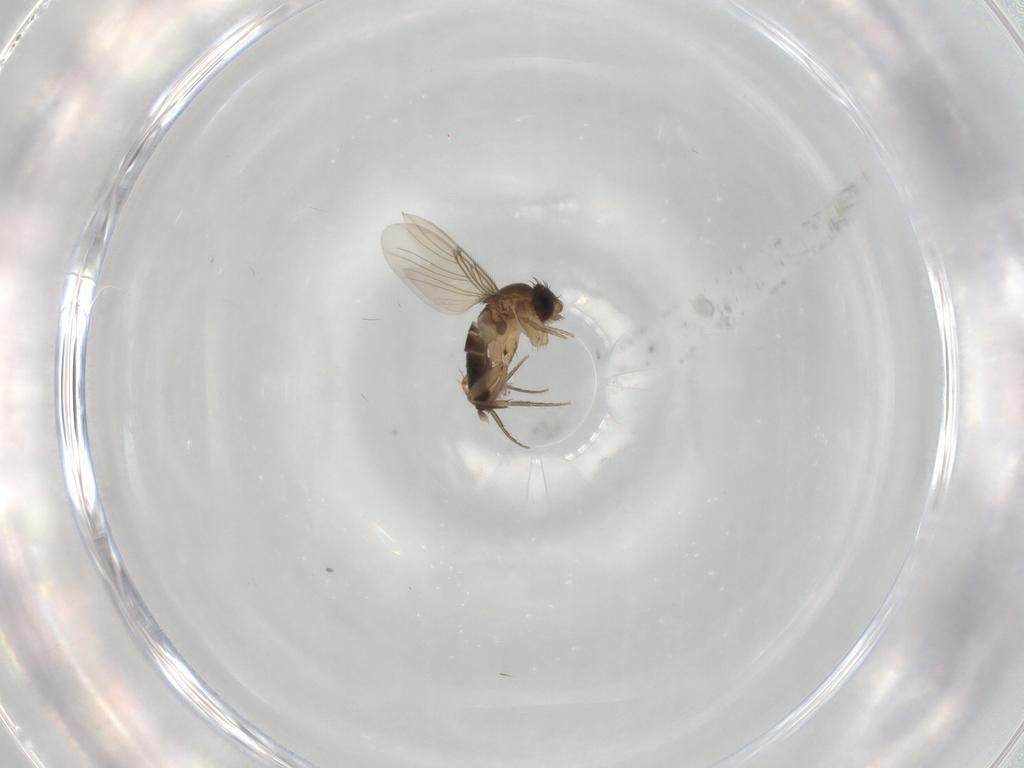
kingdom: Animalia
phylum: Arthropoda
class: Insecta
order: Diptera
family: Phoridae
